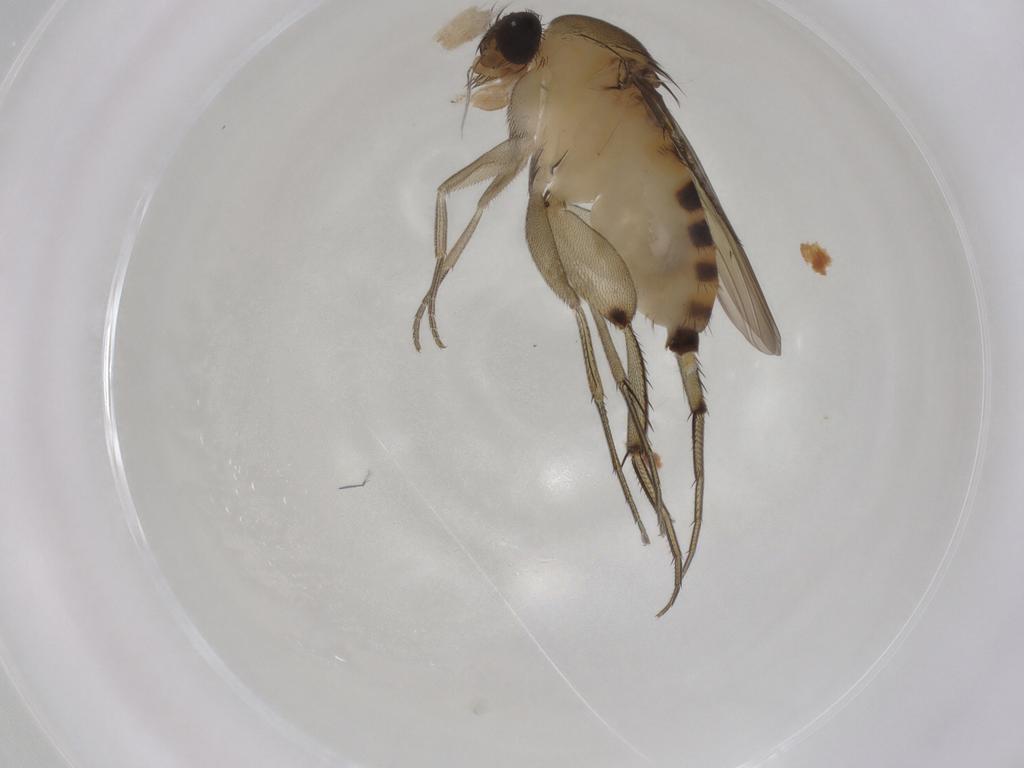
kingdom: Animalia
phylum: Arthropoda
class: Insecta
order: Diptera
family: Phoridae
